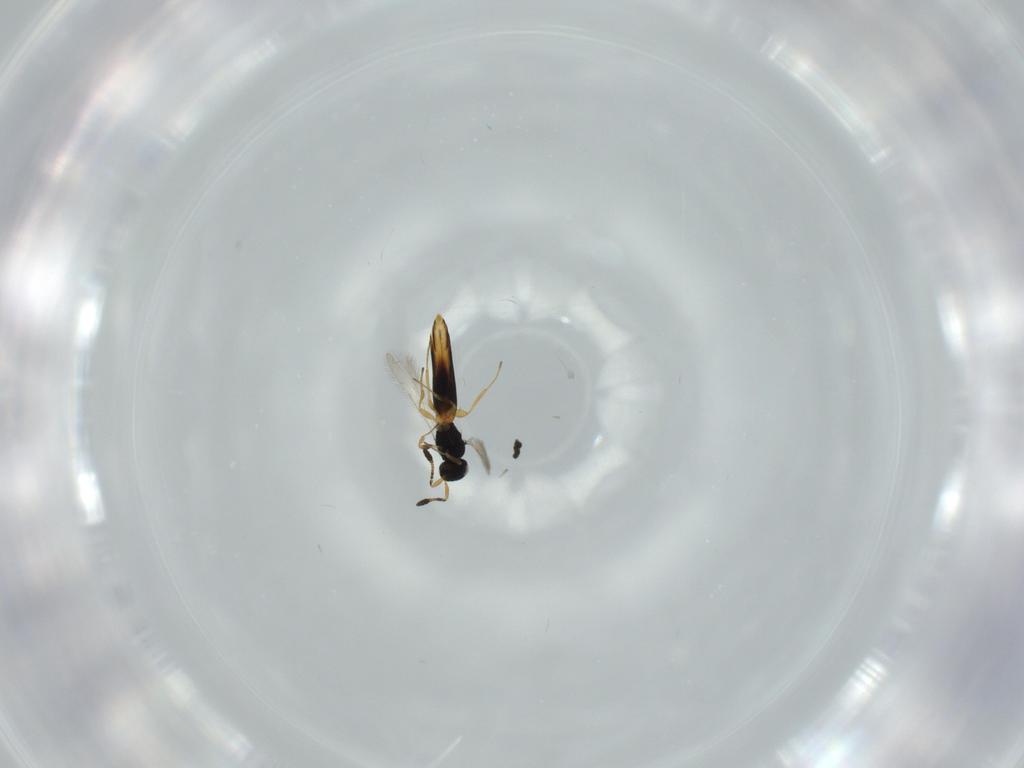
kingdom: Animalia
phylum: Arthropoda
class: Insecta
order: Hymenoptera
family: Scelionidae
